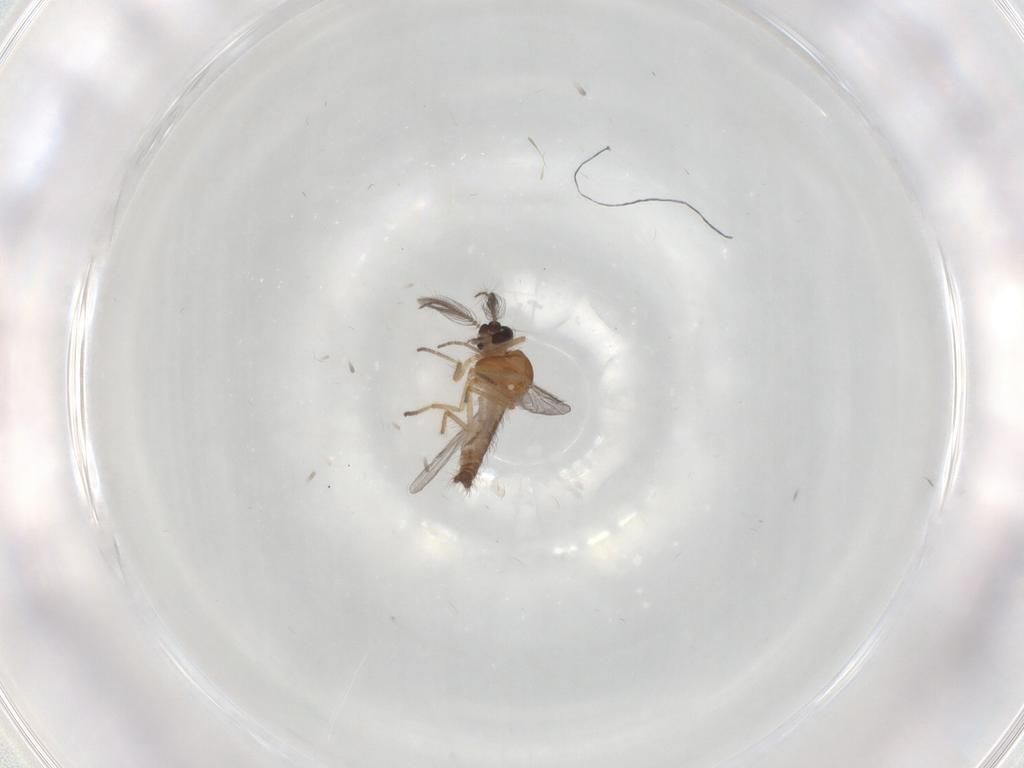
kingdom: Animalia
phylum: Arthropoda
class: Insecta
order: Diptera
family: Ceratopogonidae
